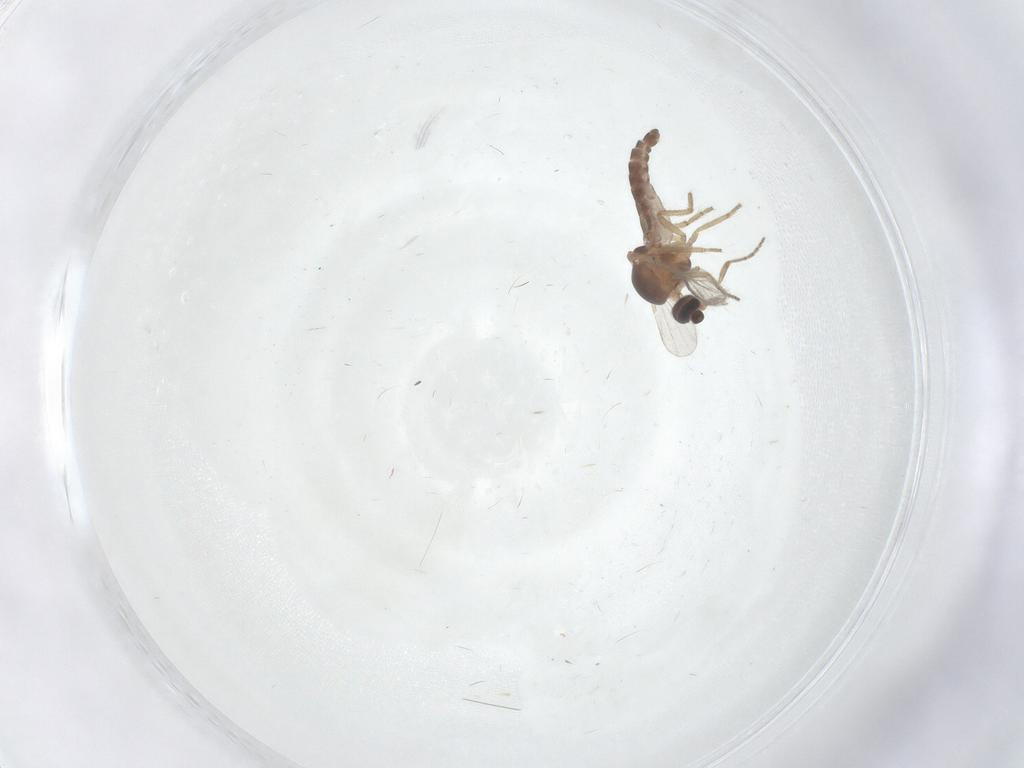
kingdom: Animalia
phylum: Arthropoda
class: Insecta
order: Diptera
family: Ceratopogonidae
